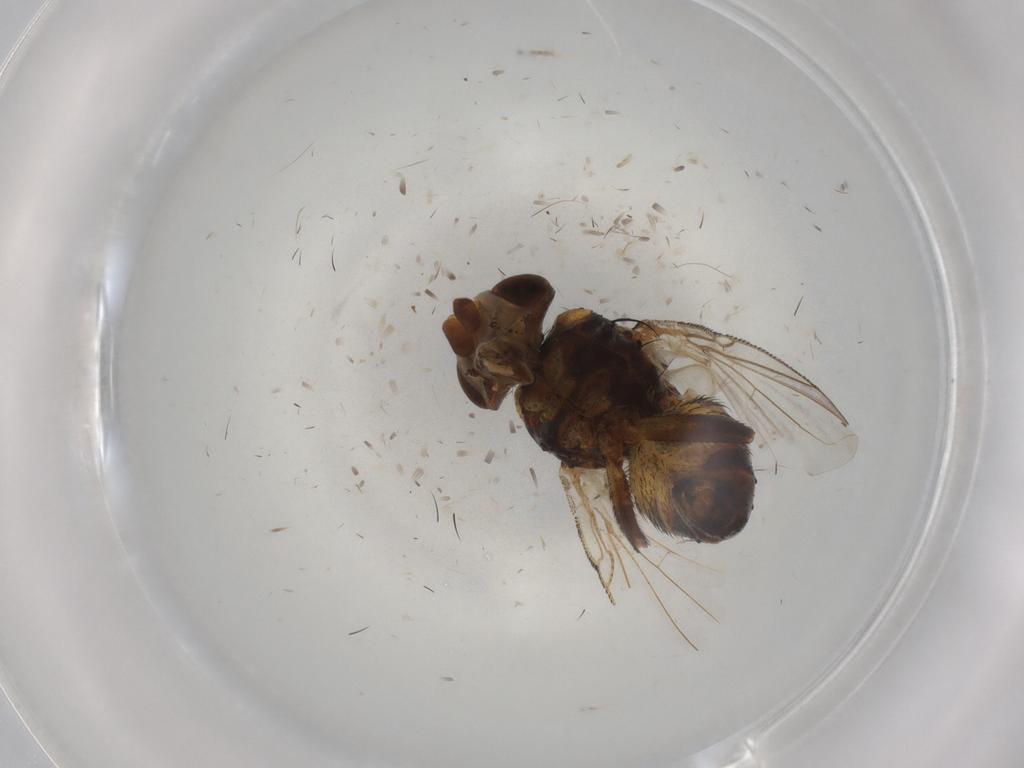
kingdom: Animalia
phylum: Arthropoda
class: Insecta
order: Diptera
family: Glossinidae
